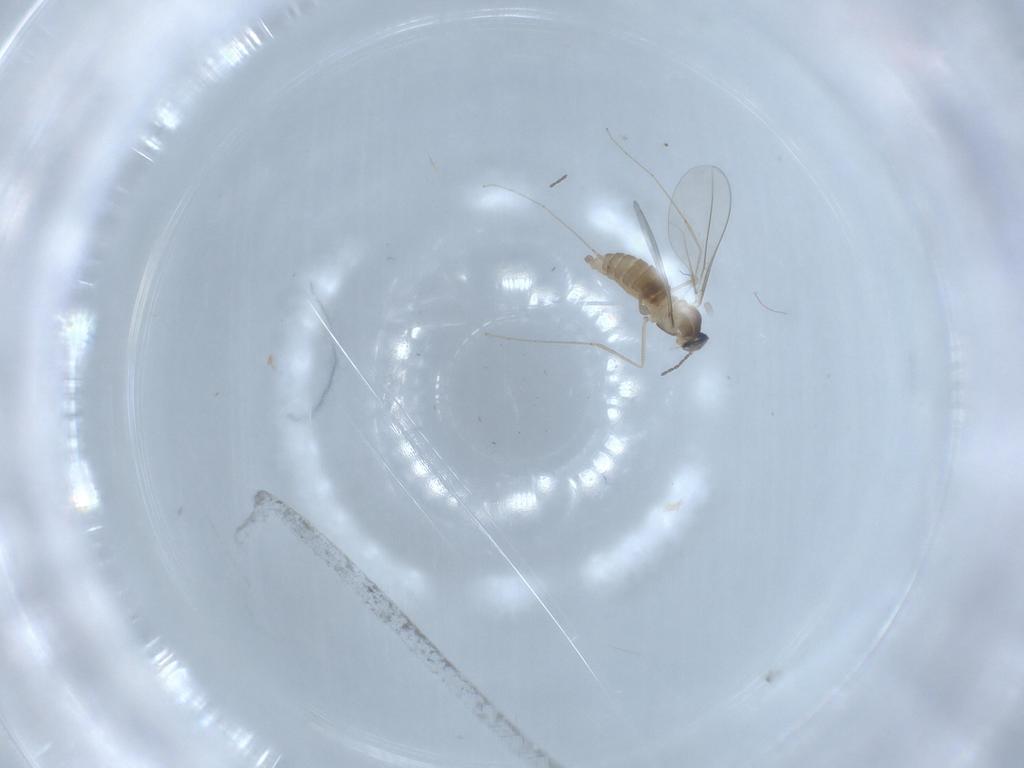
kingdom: Animalia
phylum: Arthropoda
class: Insecta
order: Diptera
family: Cecidomyiidae
